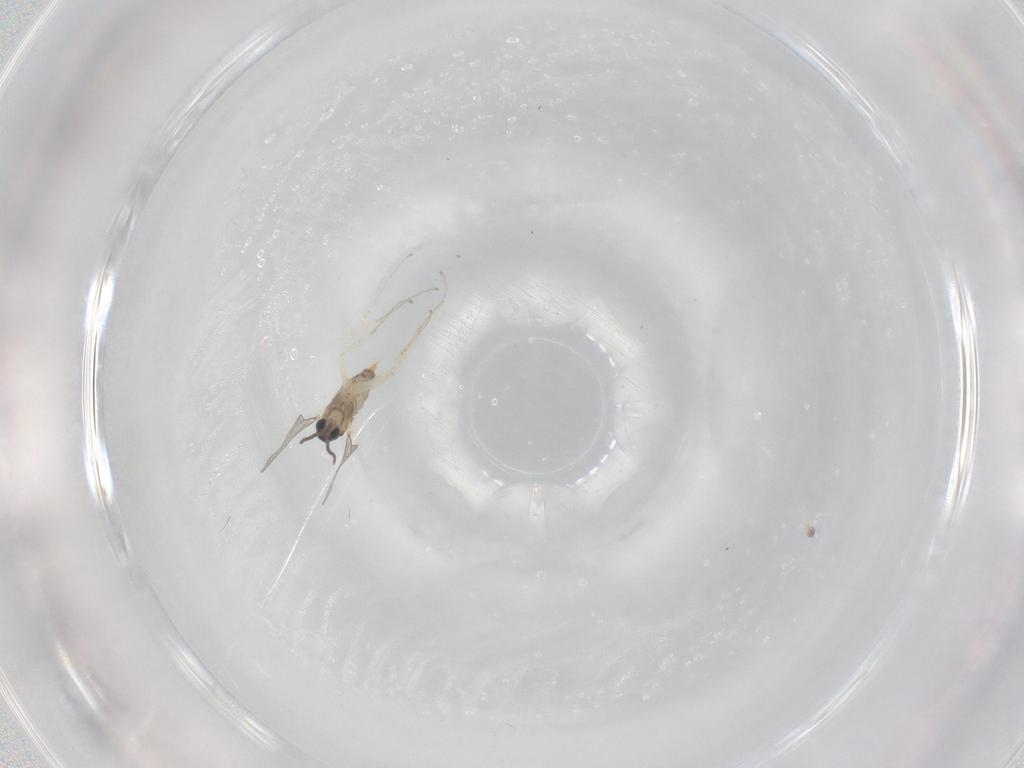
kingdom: Animalia
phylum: Arthropoda
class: Insecta
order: Diptera
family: Cecidomyiidae
